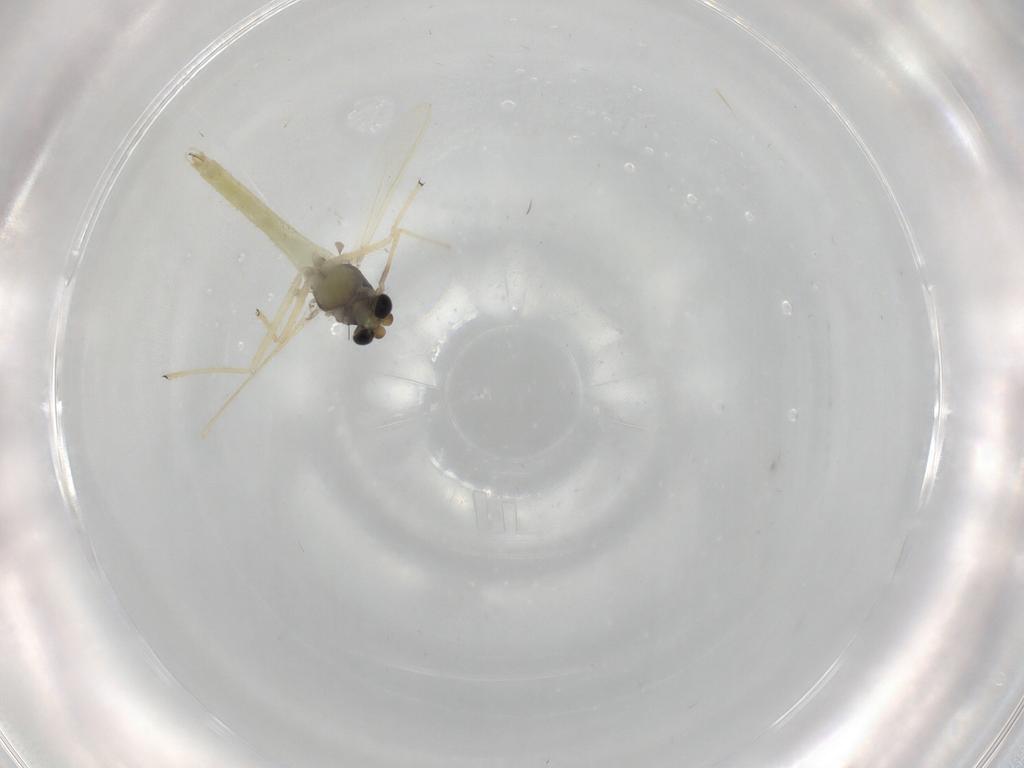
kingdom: Animalia
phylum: Arthropoda
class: Insecta
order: Diptera
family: Chironomidae
